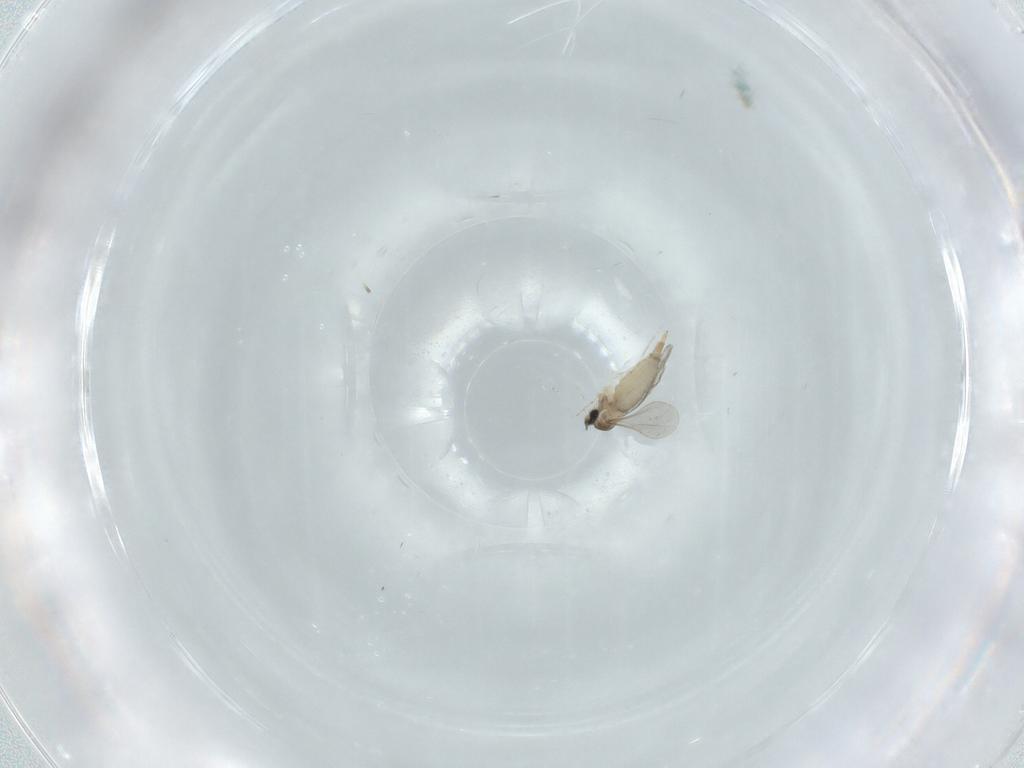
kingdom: Animalia
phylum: Arthropoda
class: Insecta
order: Diptera
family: Cecidomyiidae
